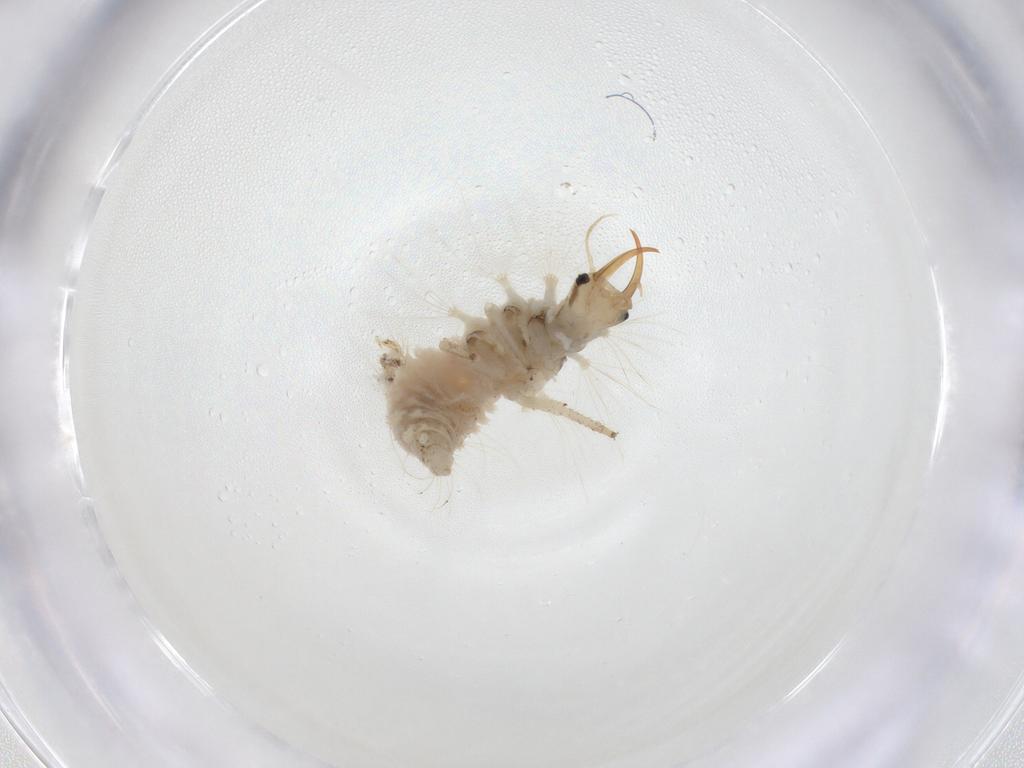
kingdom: Animalia
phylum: Arthropoda
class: Insecta
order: Neuroptera
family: Chrysopidae
